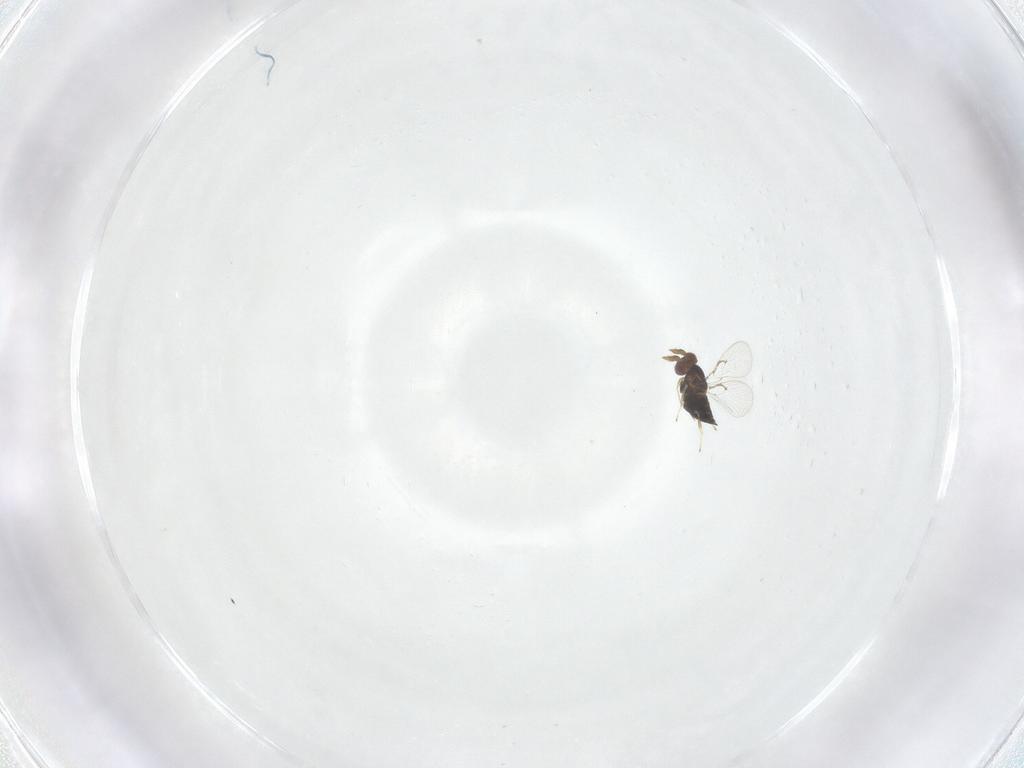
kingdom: Animalia
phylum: Arthropoda
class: Insecta
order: Hymenoptera
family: Trichogrammatidae
